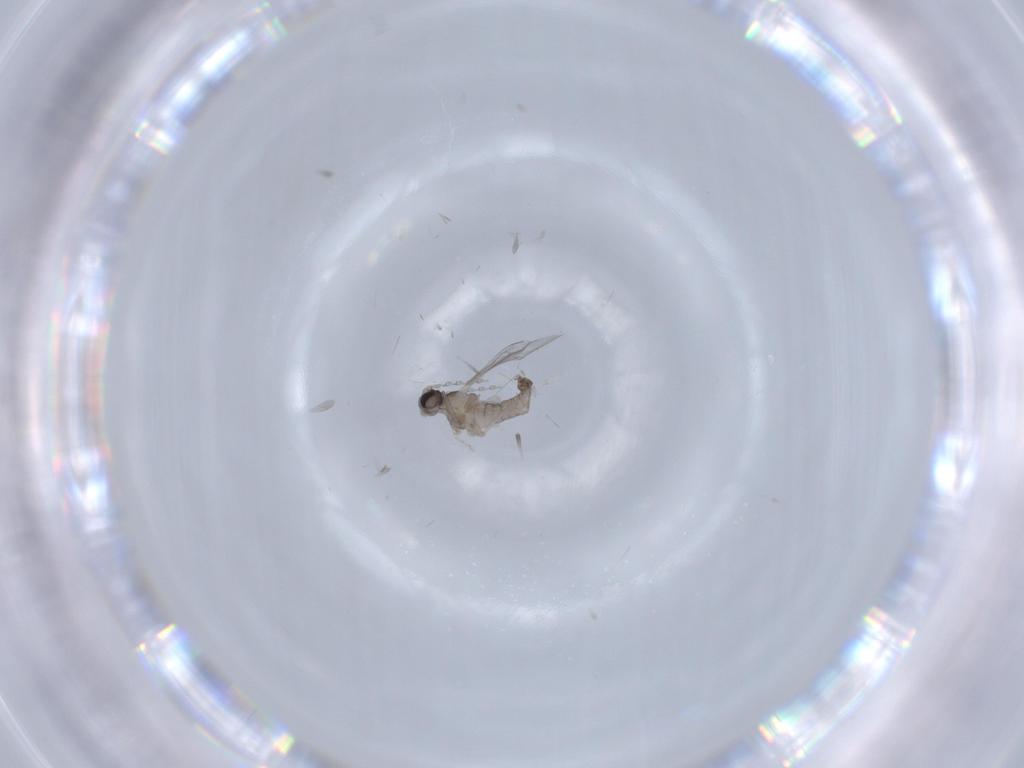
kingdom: Animalia
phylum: Arthropoda
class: Insecta
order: Diptera
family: Cecidomyiidae
